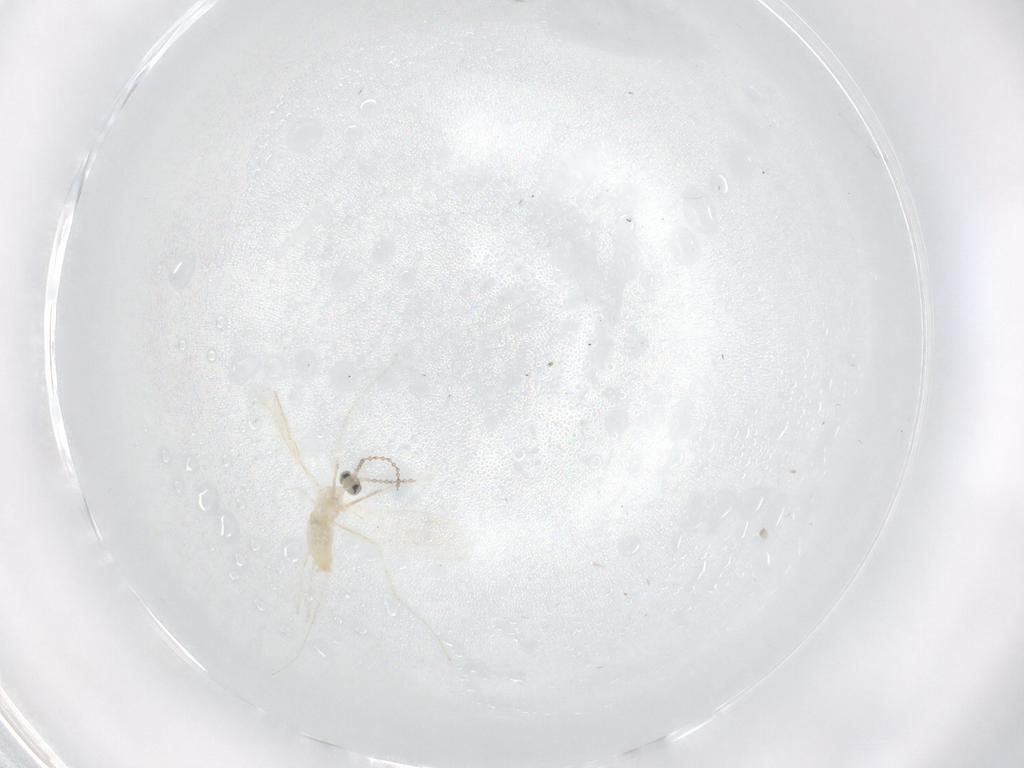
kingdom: Animalia
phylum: Arthropoda
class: Insecta
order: Diptera
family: Cecidomyiidae
